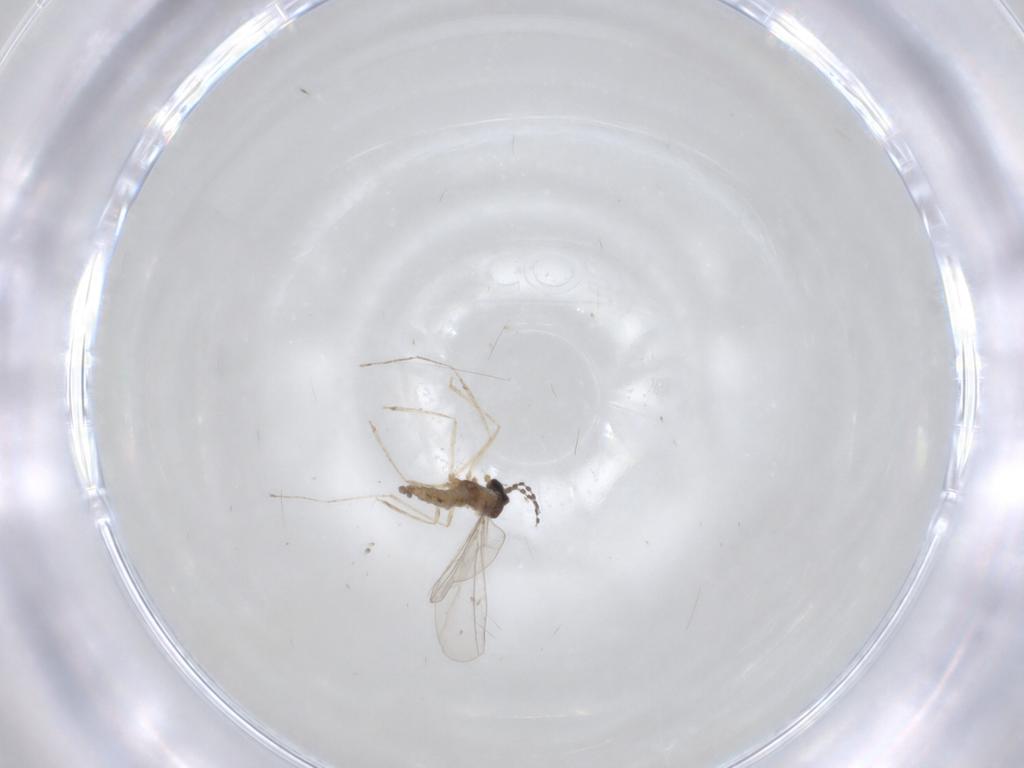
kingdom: Animalia
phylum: Arthropoda
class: Insecta
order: Diptera
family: Cecidomyiidae
